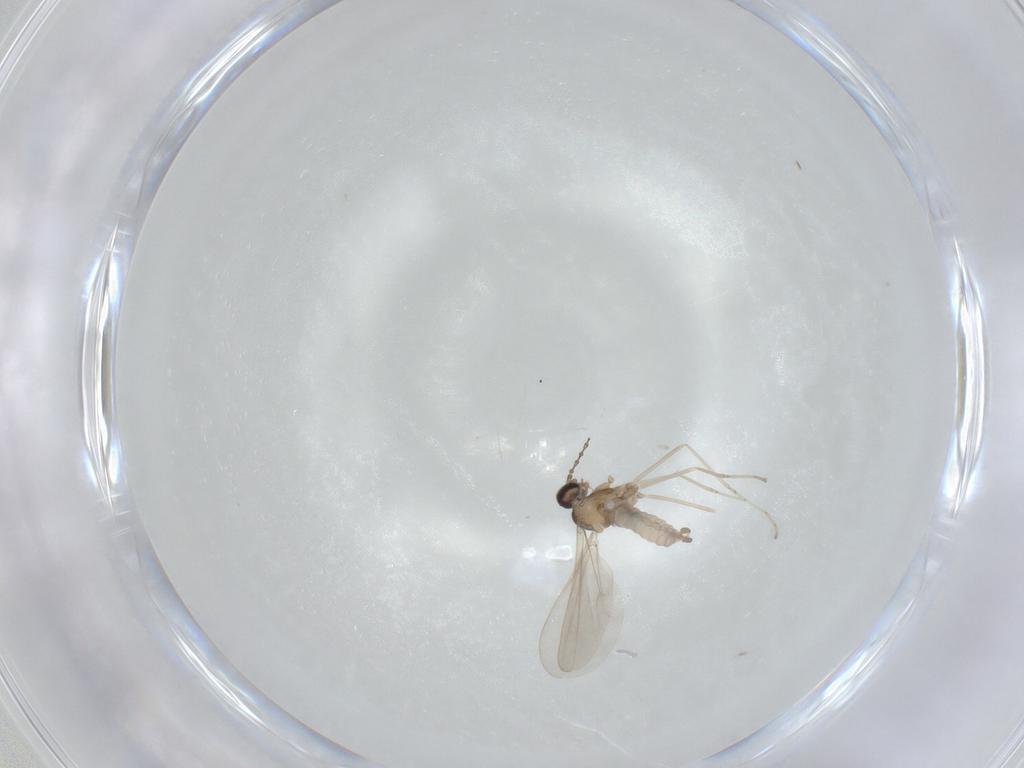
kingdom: Animalia
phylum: Arthropoda
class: Insecta
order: Diptera
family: Cecidomyiidae
